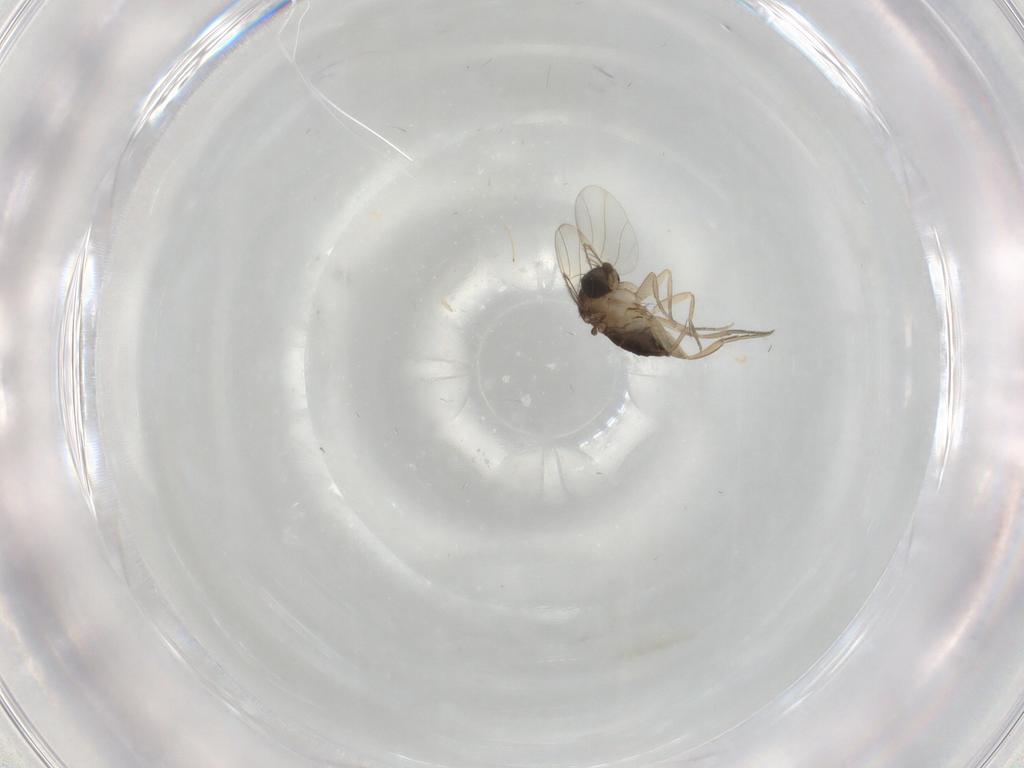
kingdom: Animalia
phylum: Arthropoda
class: Insecta
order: Diptera
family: Phoridae
